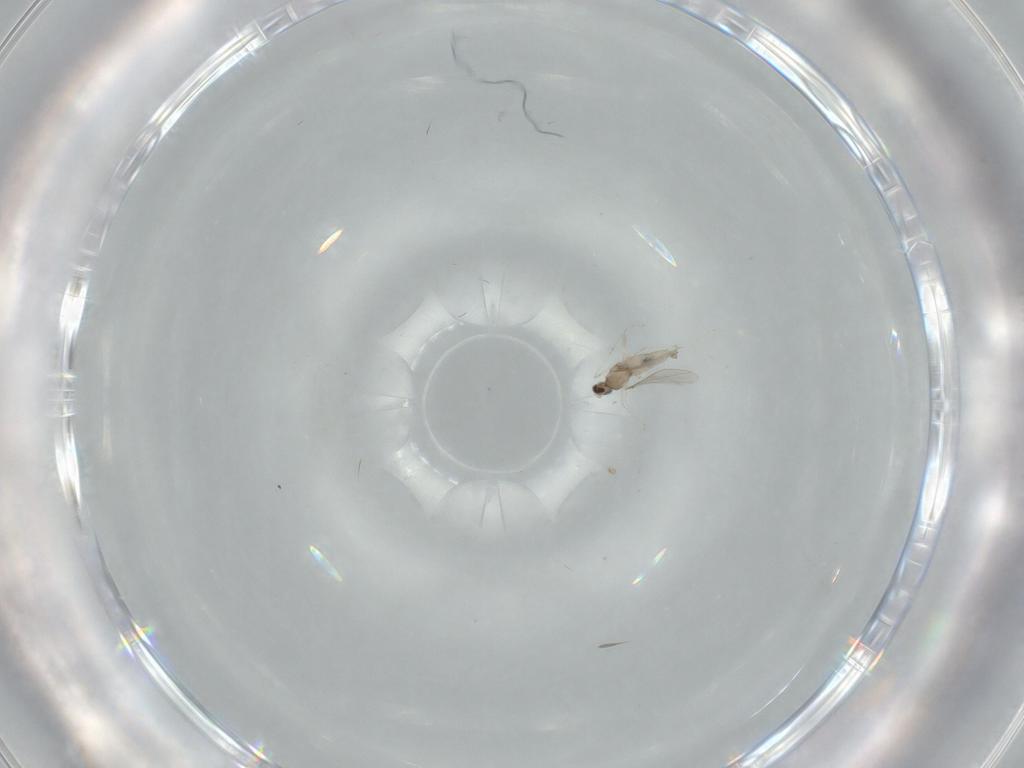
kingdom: Animalia
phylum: Arthropoda
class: Insecta
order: Diptera
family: Cecidomyiidae
